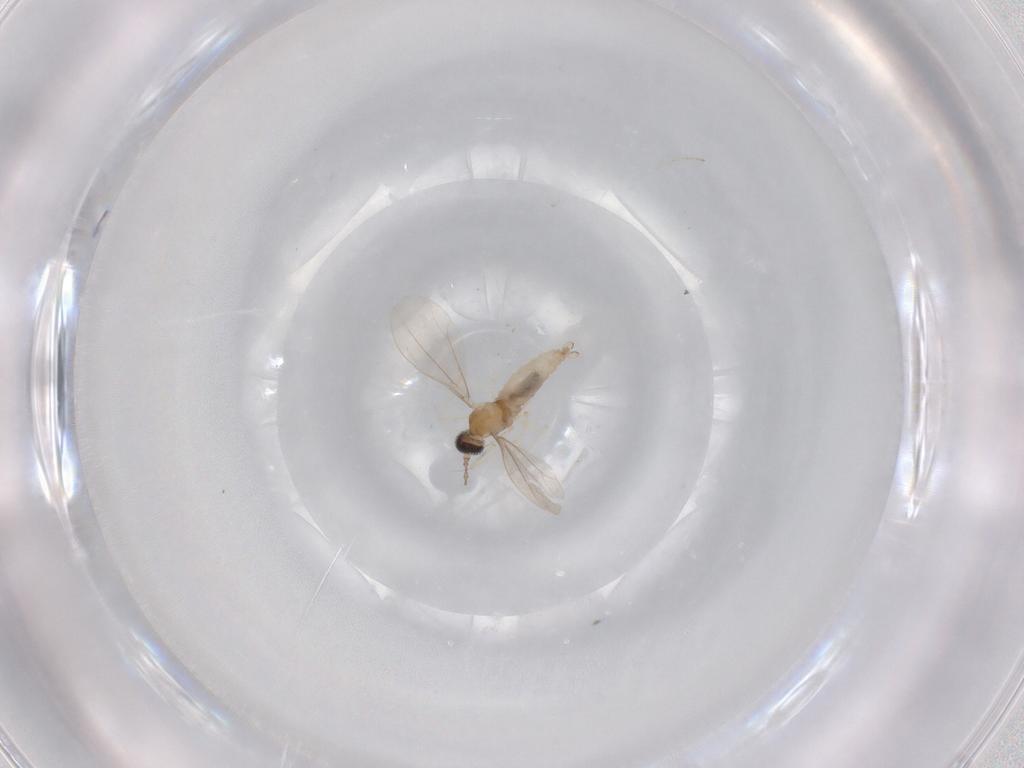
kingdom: Animalia
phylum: Arthropoda
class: Insecta
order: Diptera
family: Cecidomyiidae
